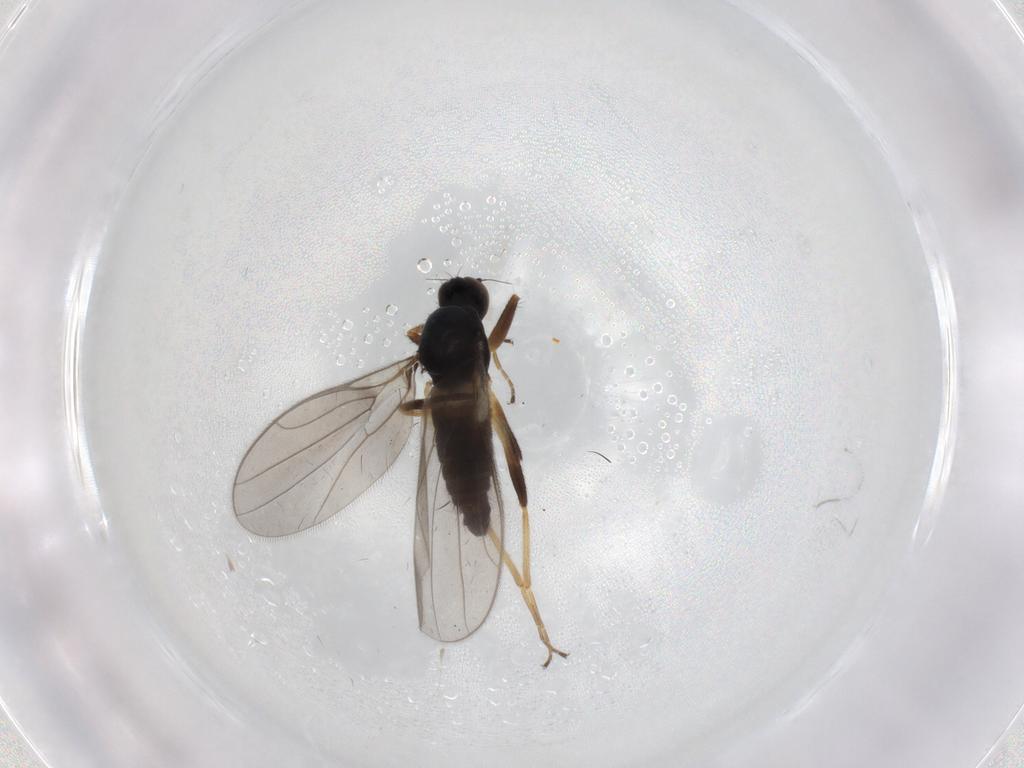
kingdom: Animalia
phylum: Arthropoda
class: Insecta
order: Diptera
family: Hybotidae
